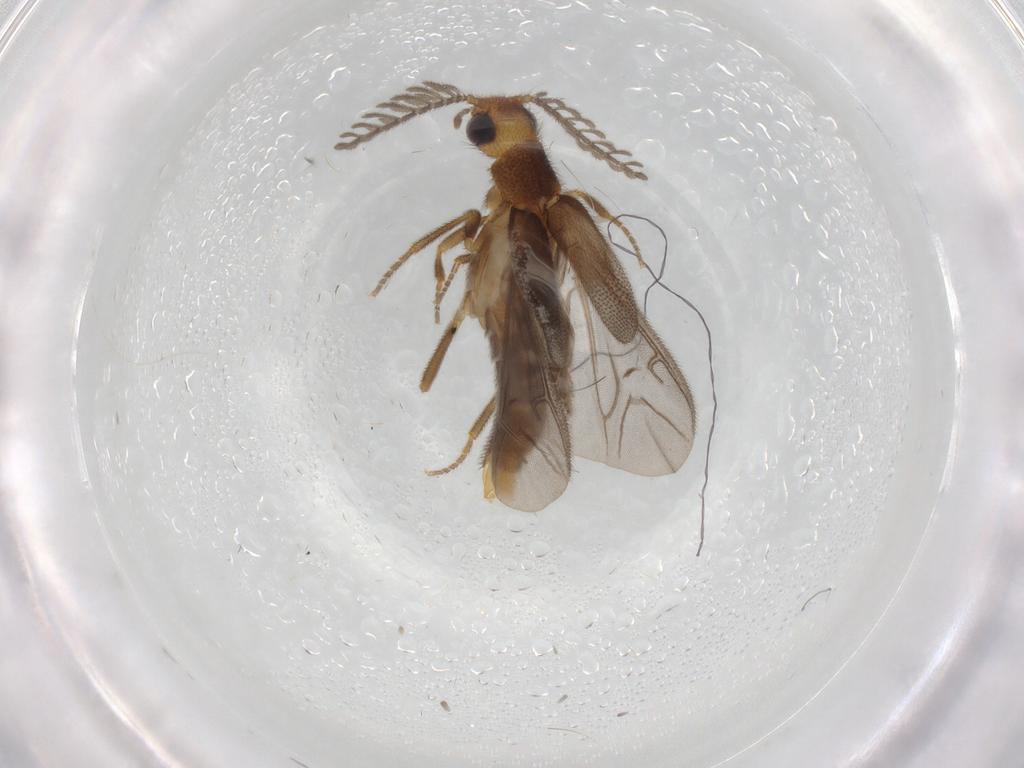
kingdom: Animalia
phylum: Arthropoda
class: Insecta
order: Coleoptera
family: Phengodidae
